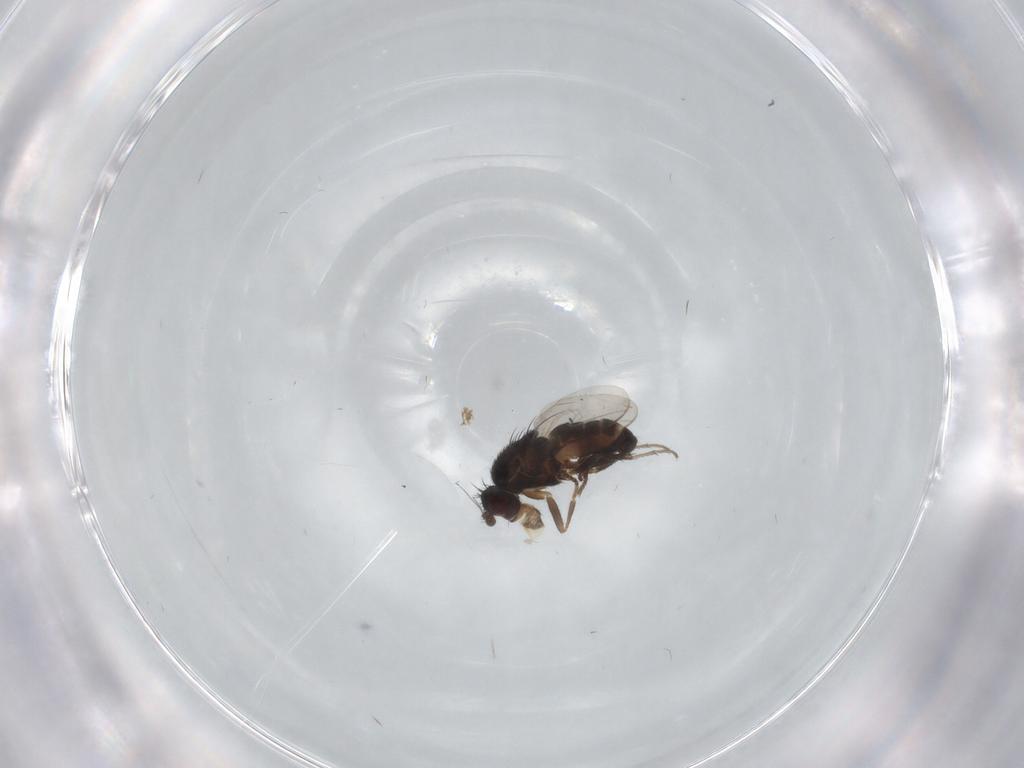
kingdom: Animalia
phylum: Arthropoda
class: Insecta
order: Diptera
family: Sphaeroceridae
